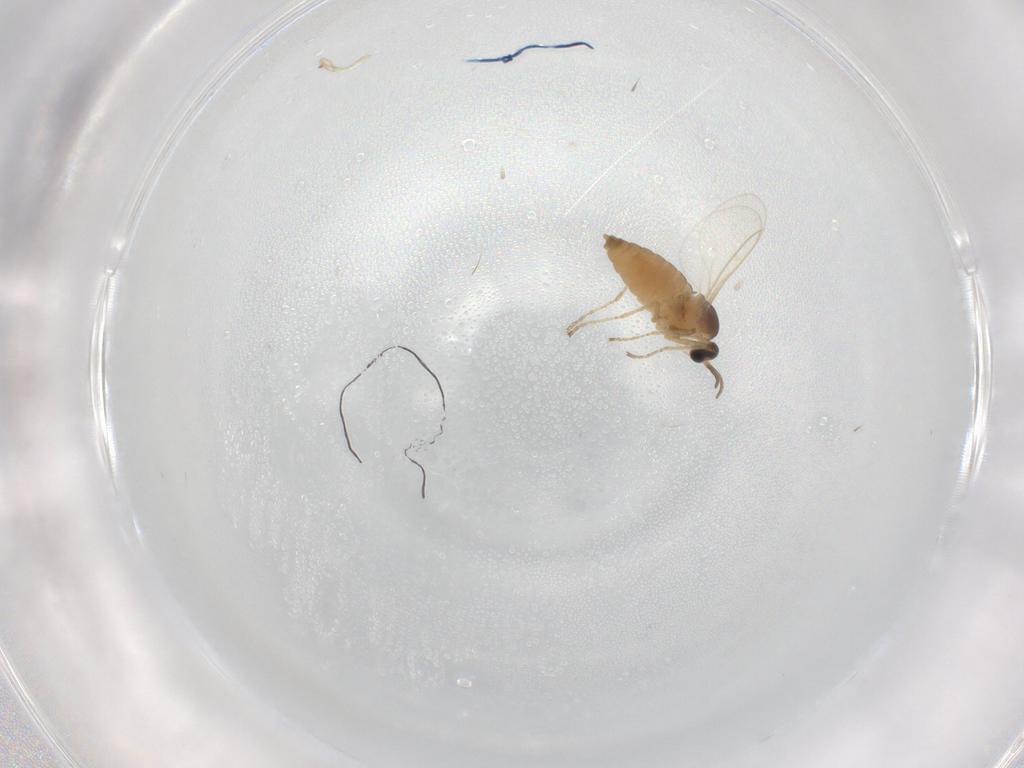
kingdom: Animalia
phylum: Arthropoda
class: Insecta
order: Diptera
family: Cecidomyiidae
